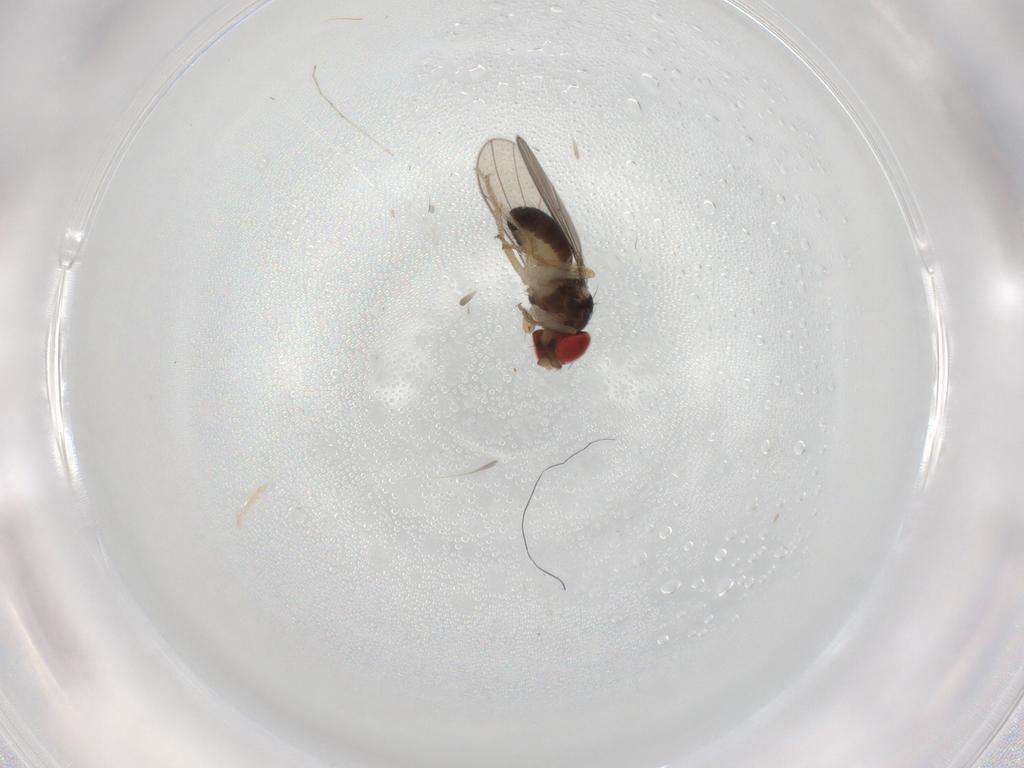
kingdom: Animalia
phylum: Arthropoda
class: Insecta
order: Diptera
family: Drosophilidae
